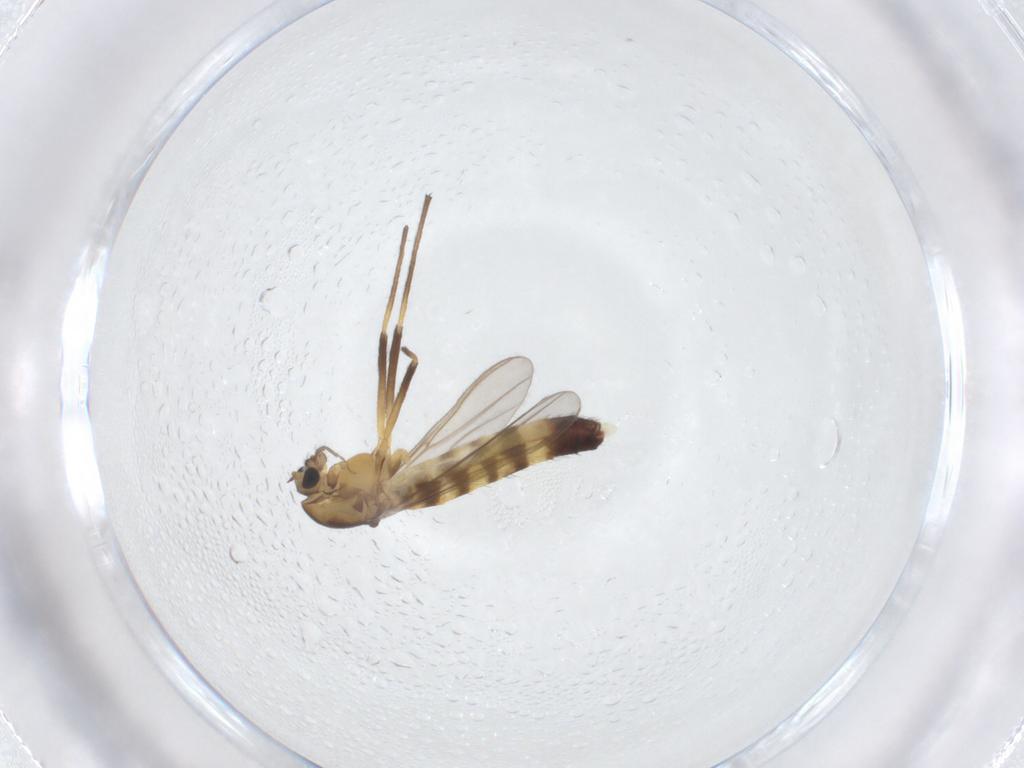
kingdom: Animalia
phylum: Arthropoda
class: Insecta
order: Diptera
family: Chironomidae
